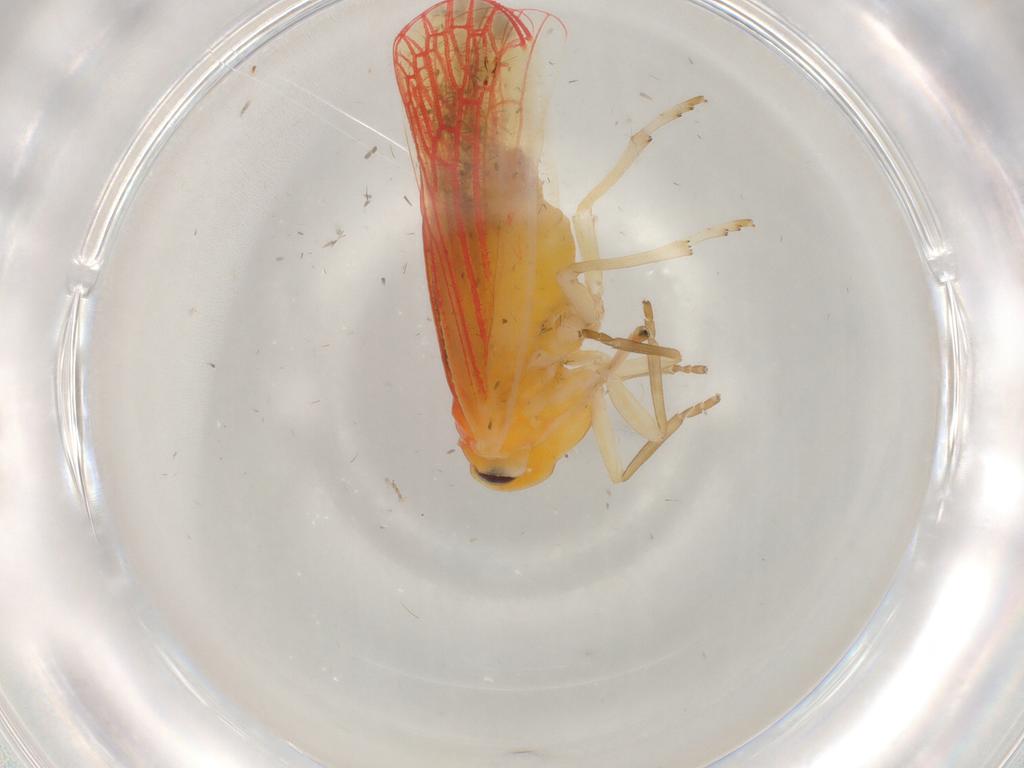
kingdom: Animalia
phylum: Arthropoda
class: Insecta
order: Hemiptera
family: Derbidae
